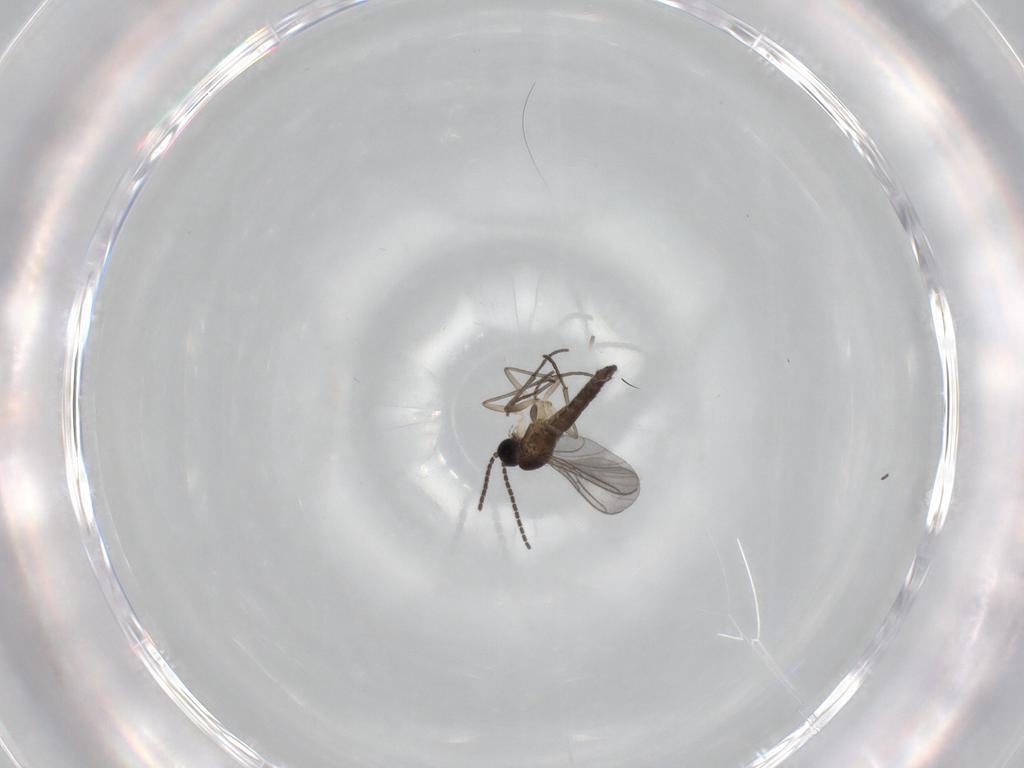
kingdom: Animalia
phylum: Arthropoda
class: Insecta
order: Diptera
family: Sciaridae
